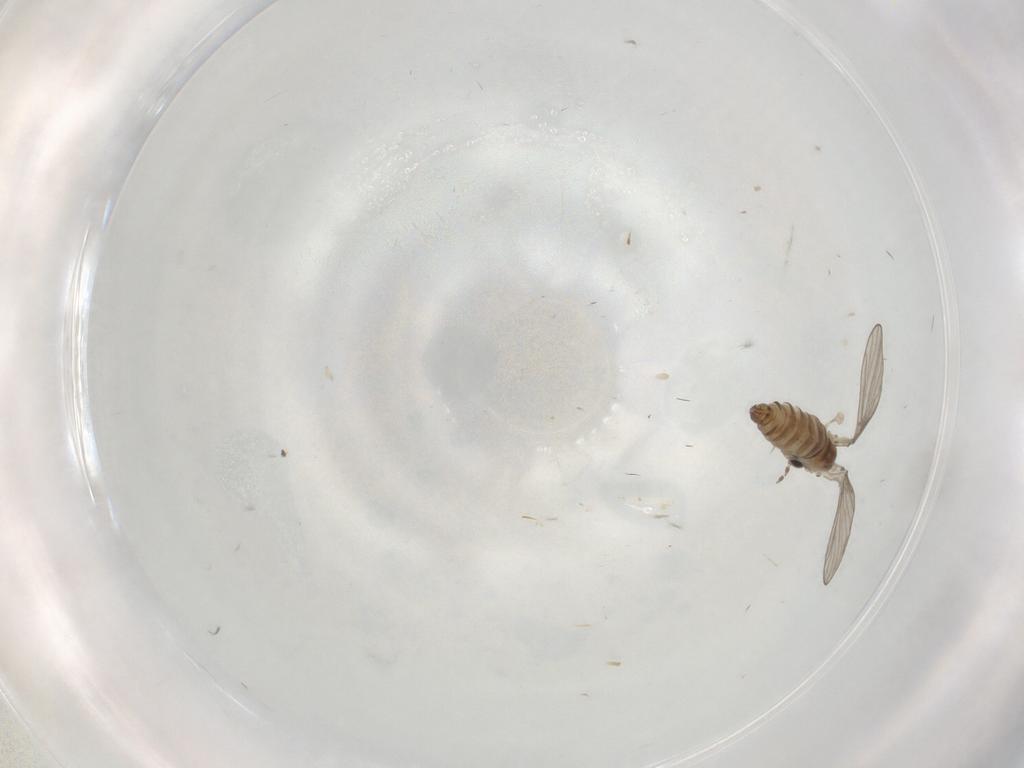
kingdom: Animalia
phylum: Arthropoda
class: Insecta
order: Diptera
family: Psychodidae
